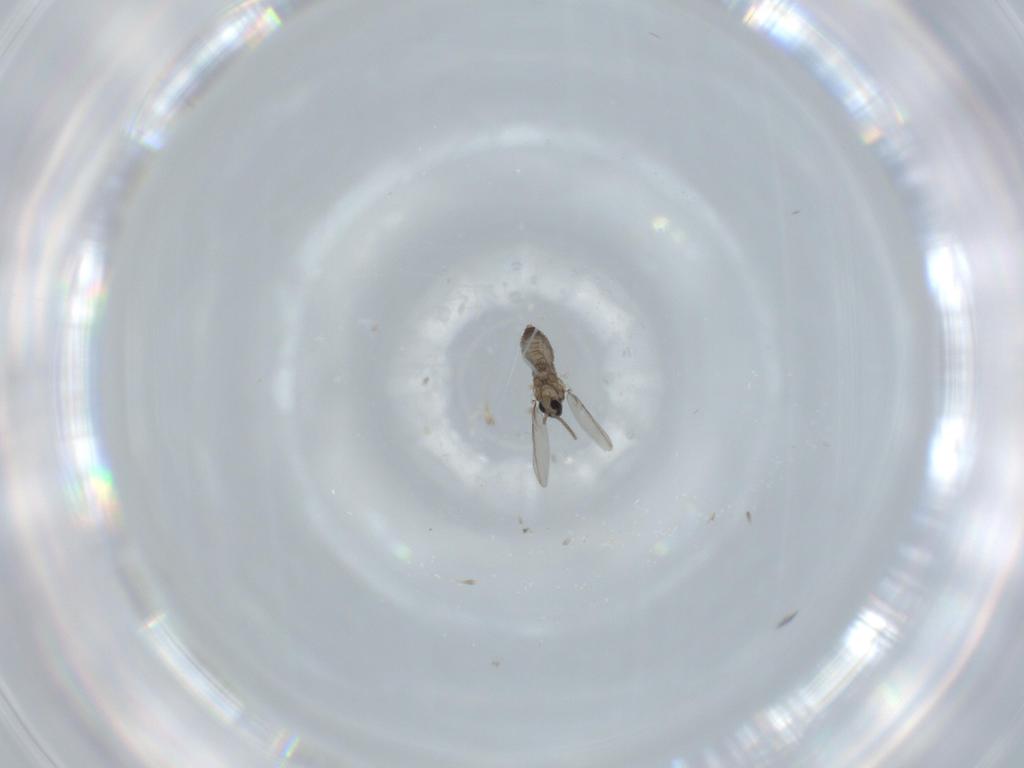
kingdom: Animalia
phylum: Arthropoda
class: Insecta
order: Diptera
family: Cecidomyiidae
